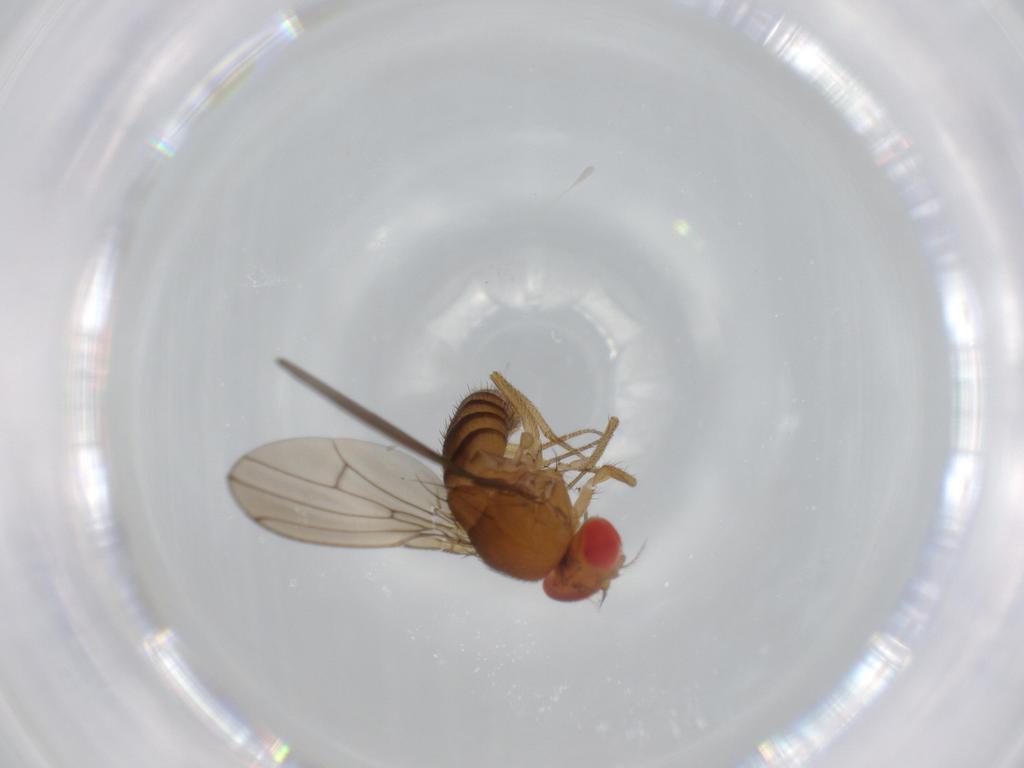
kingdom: Animalia
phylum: Arthropoda
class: Insecta
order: Diptera
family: Drosophilidae
